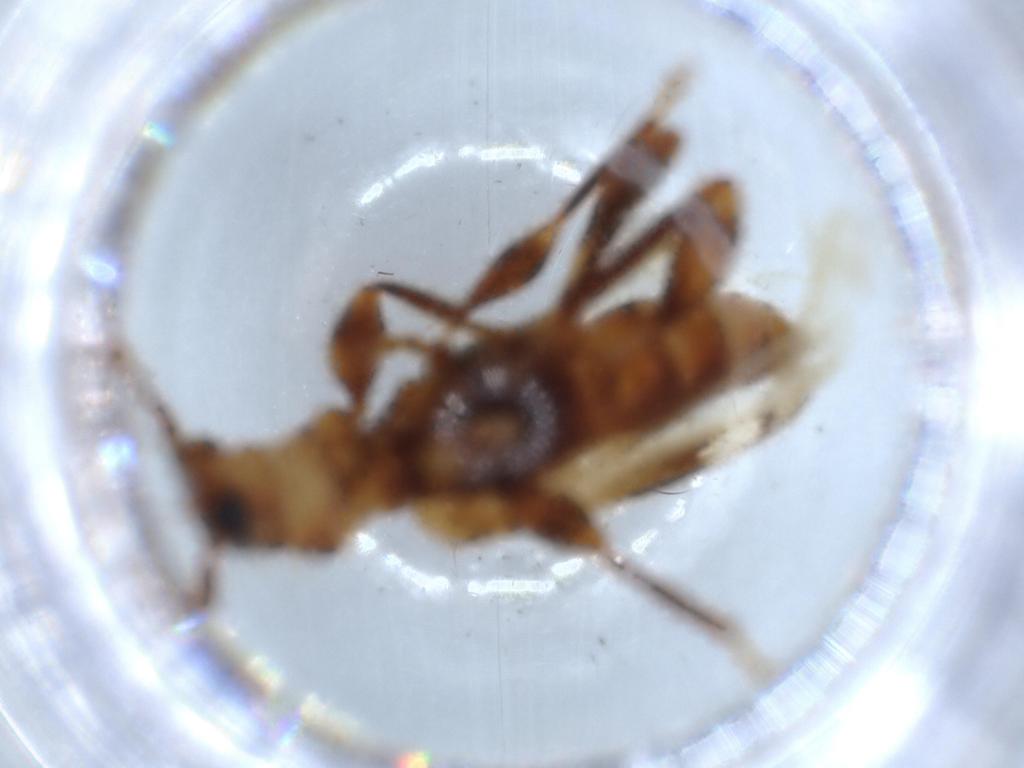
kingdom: Animalia
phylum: Arthropoda
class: Insecta
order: Coleoptera
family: Cerambycidae
